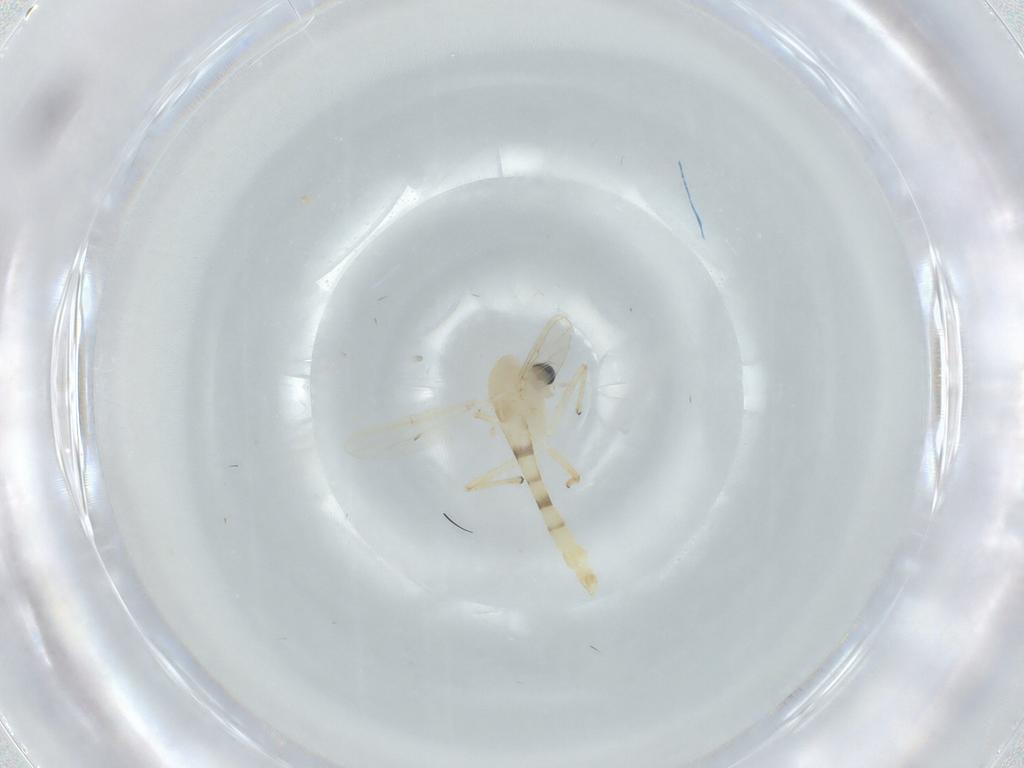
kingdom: Animalia
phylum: Arthropoda
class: Insecta
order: Diptera
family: Chironomidae
